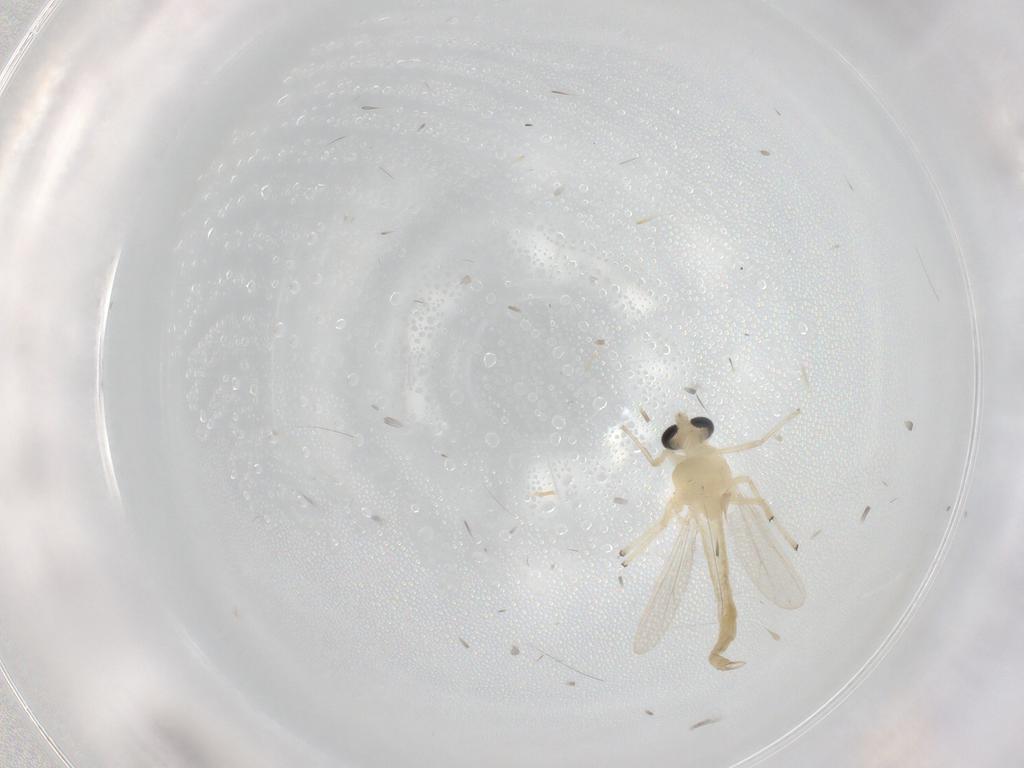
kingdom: Animalia
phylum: Arthropoda
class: Insecta
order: Diptera
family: Chironomidae
